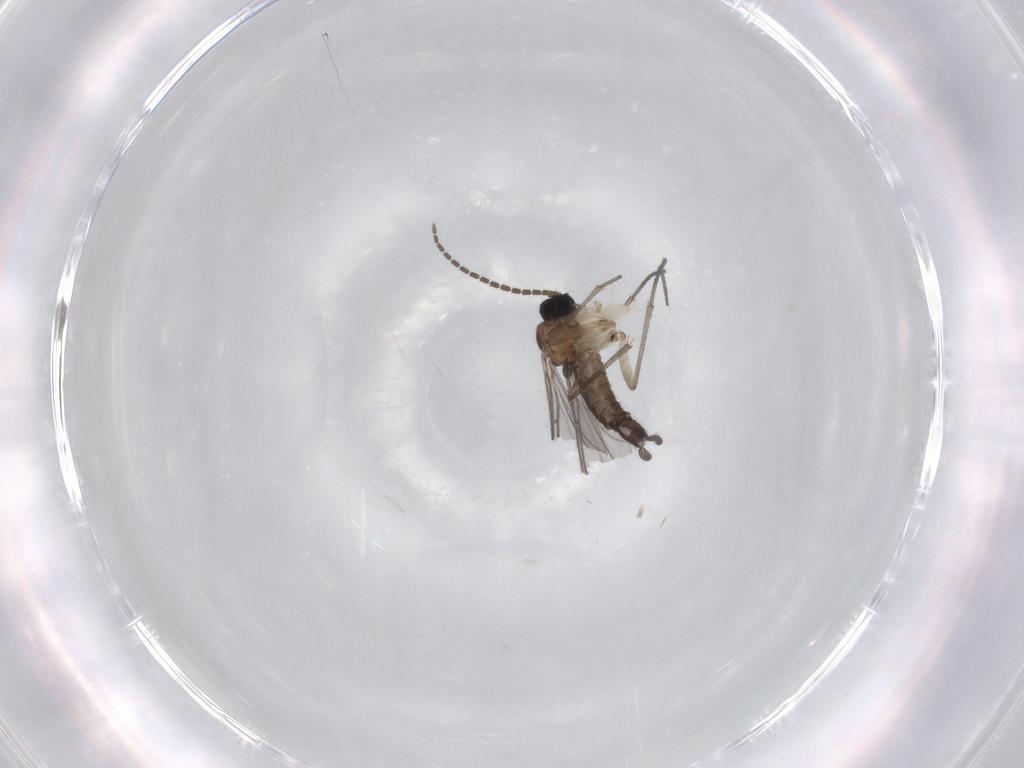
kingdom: Animalia
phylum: Arthropoda
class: Insecta
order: Diptera
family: Sciaridae
